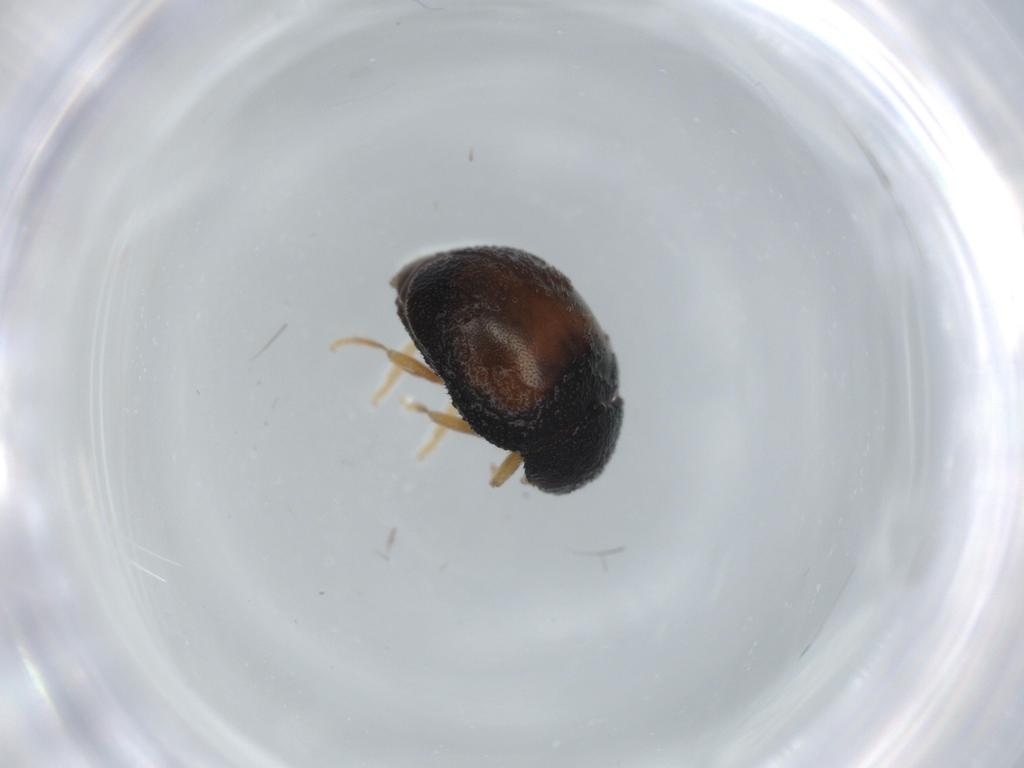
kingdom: Animalia
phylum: Arthropoda
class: Insecta
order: Coleoptera
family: Coccinellidae
